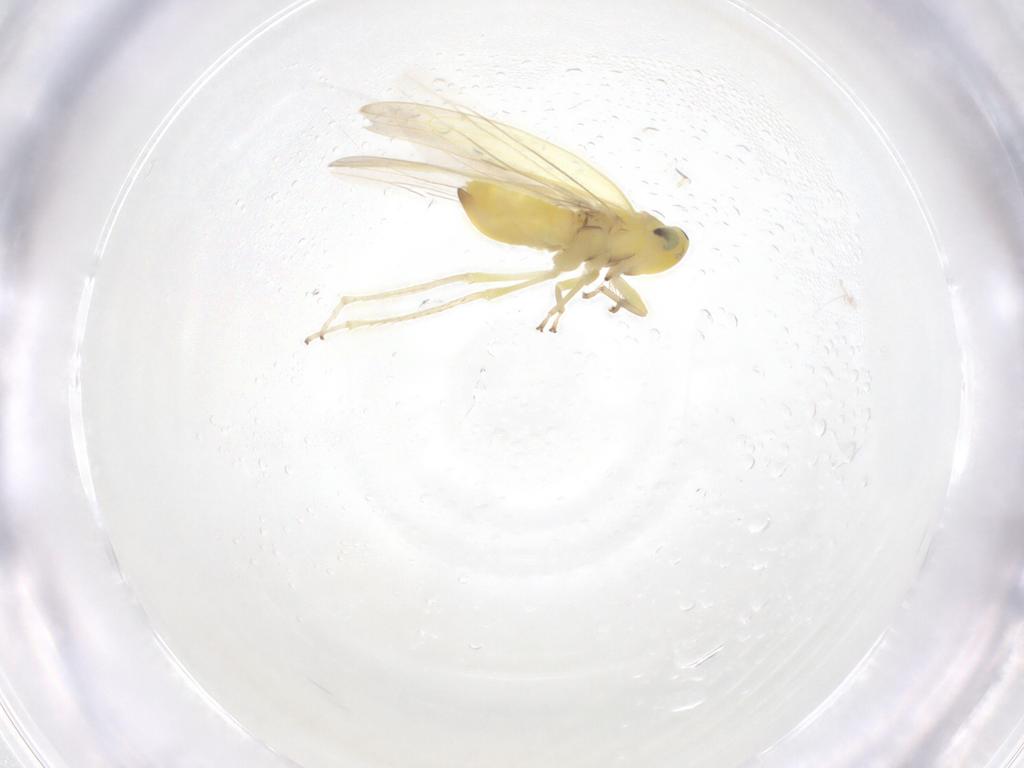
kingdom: Animalia
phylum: Arthropoda
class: Insecta
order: Hemiptera
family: Cicadellidae
